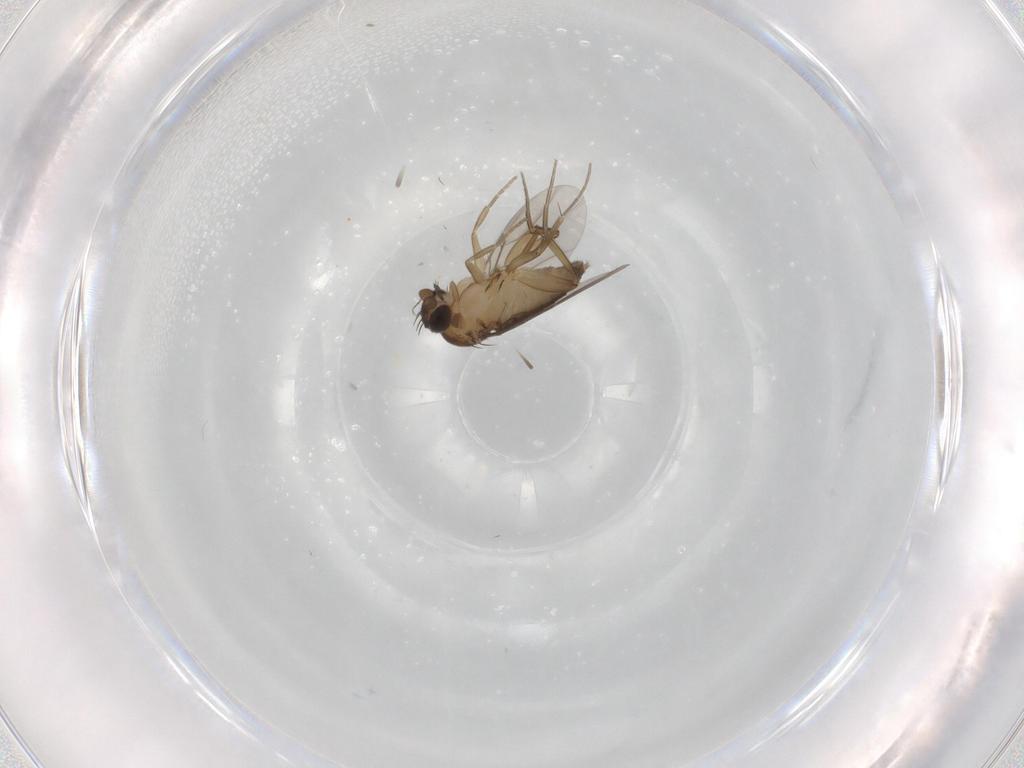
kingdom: Animalia
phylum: Arthropoda
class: Insecta
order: Diptera
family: Phoridae
